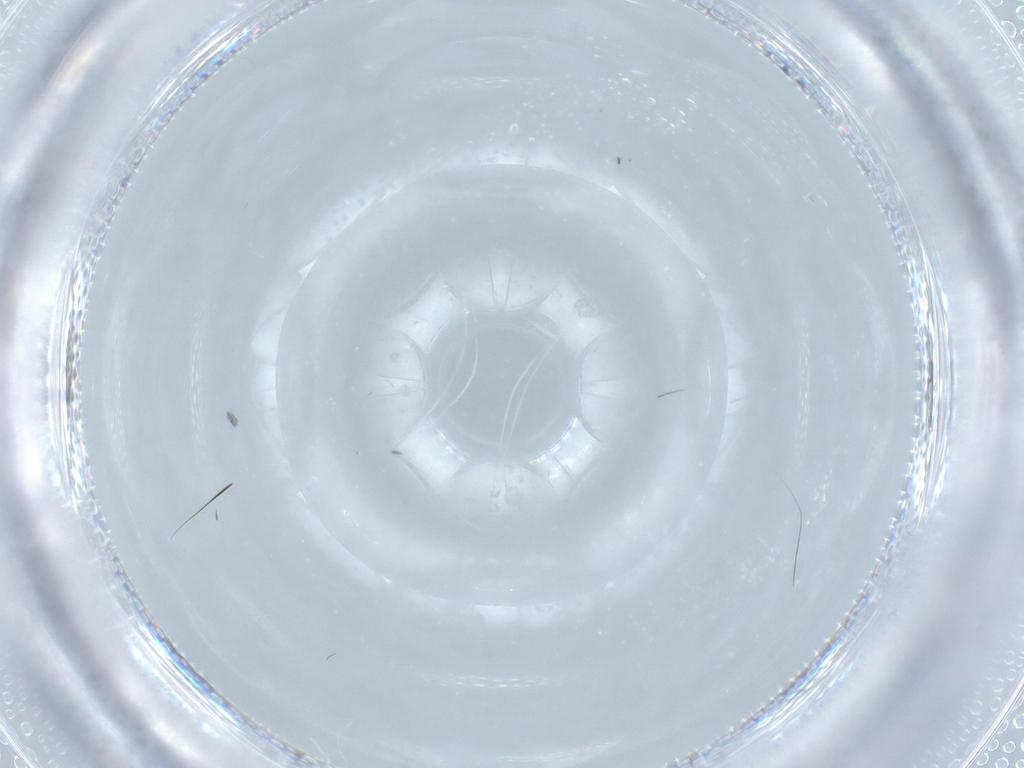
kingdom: Animalia
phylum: Arthropoda
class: Insecta
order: Diptera
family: Cecidomyiidae
